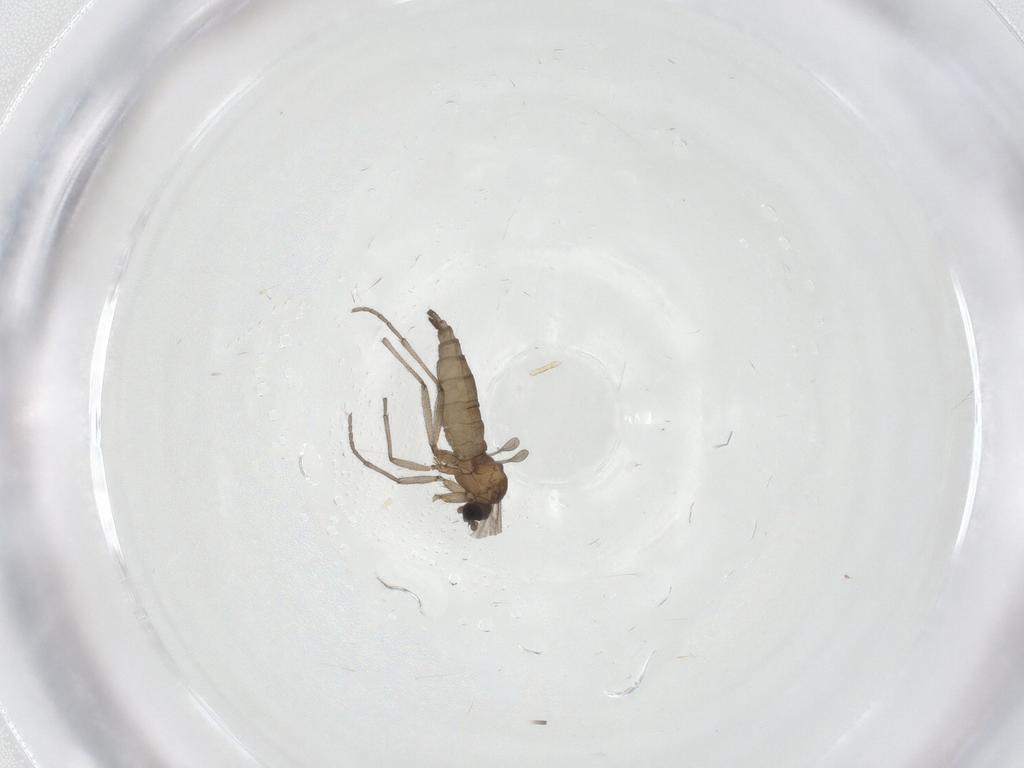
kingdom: Animalia
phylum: Arthropoda
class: Insecta
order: Diptera
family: Sciaridae
